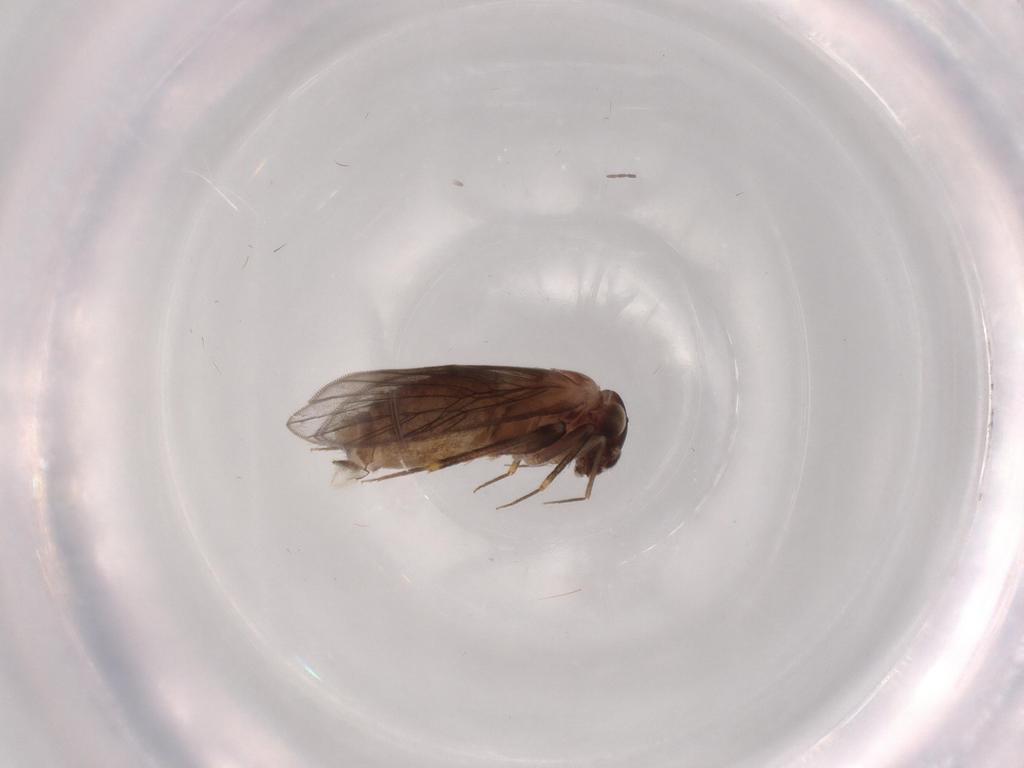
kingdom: Animalia
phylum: Arthropoda
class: Insecta
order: Psocodea
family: Lepidopsocidae
